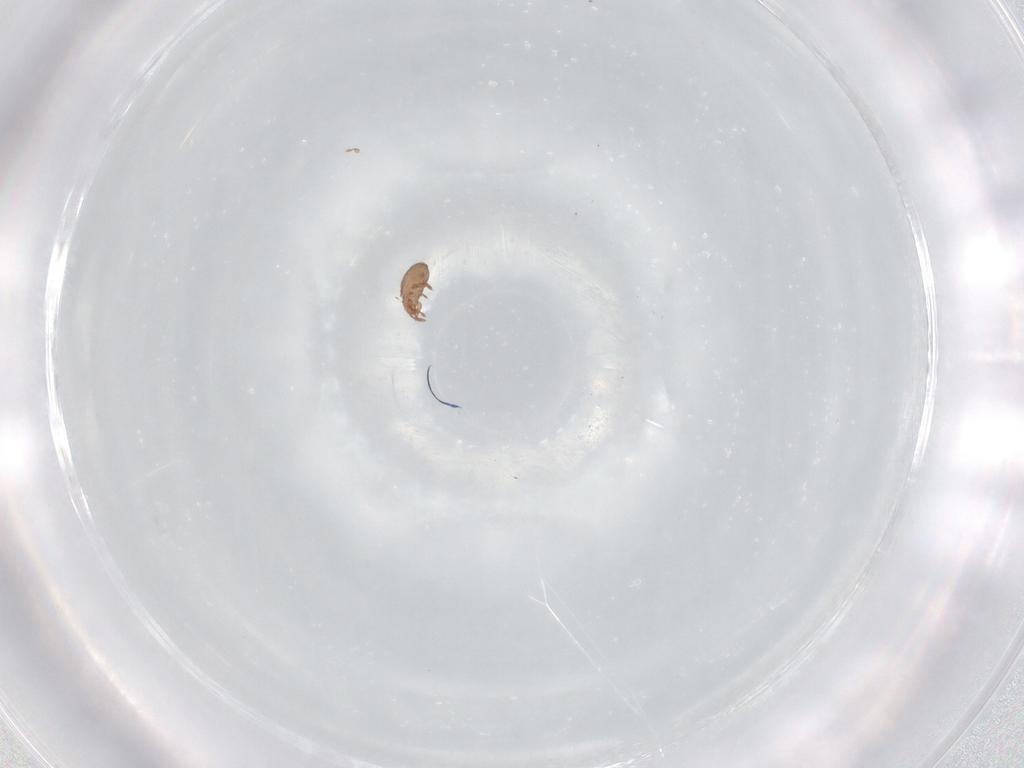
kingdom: Animalia
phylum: Arthropoda
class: Arachnida
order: Sarcoptiformes
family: Eremaeidae
